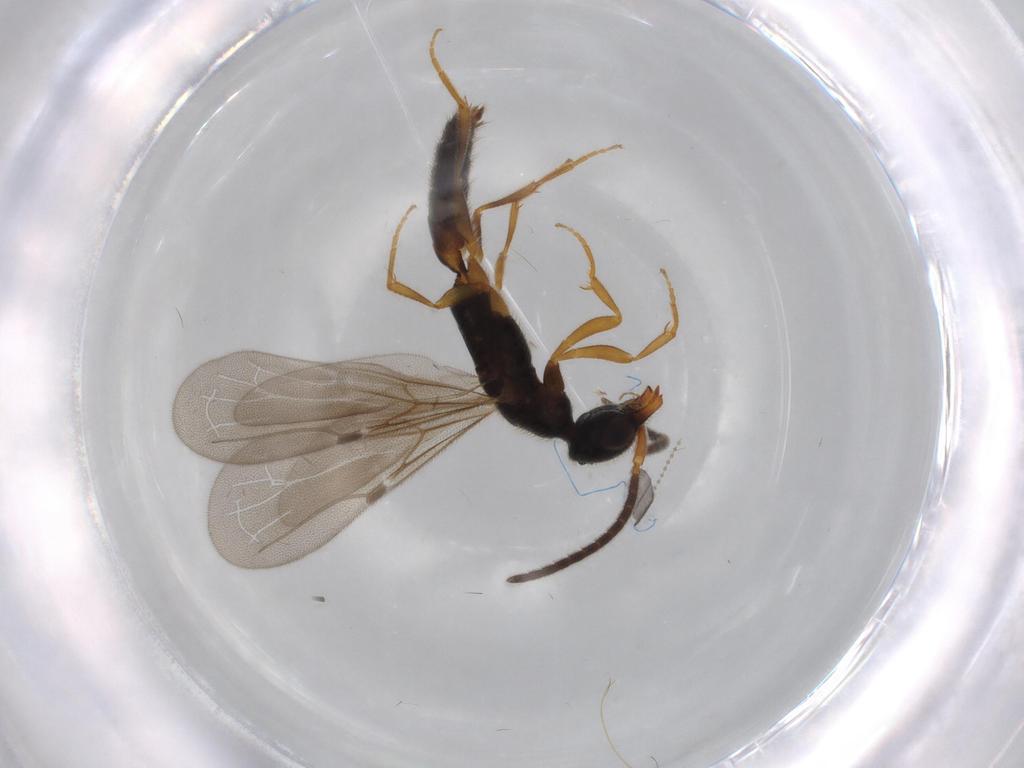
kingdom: Animalia
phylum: Arthropoda
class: Insecta
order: Hymenoptera
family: Bethylidae
